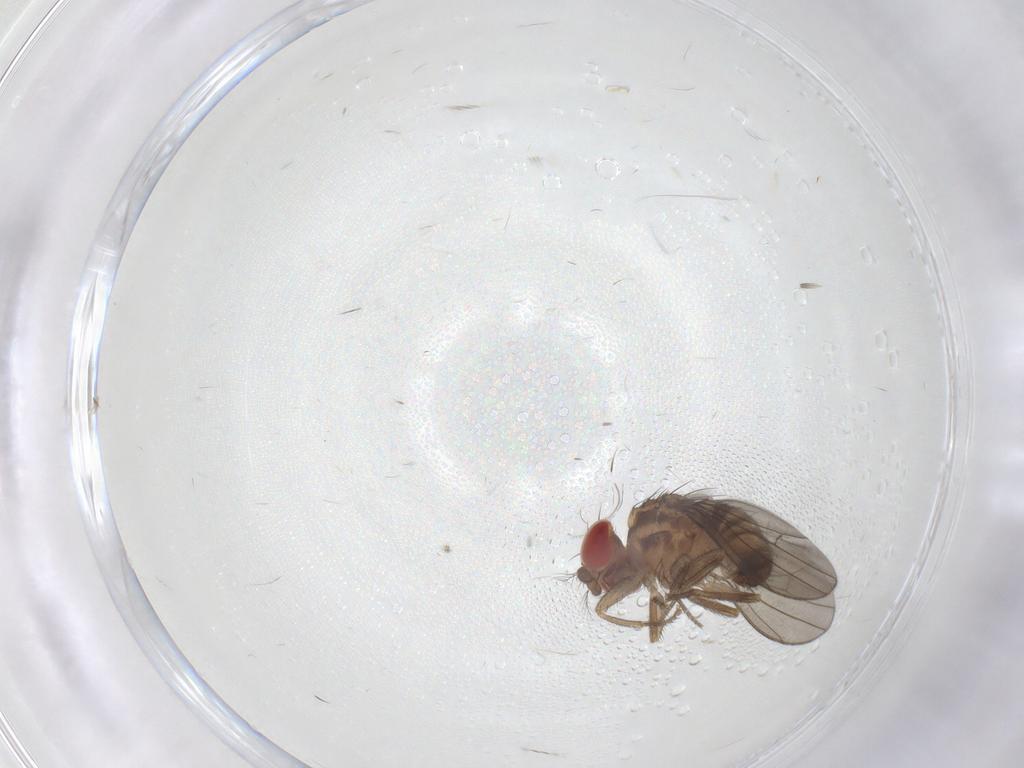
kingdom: Animalia
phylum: Arthropoda
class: Insecta
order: Diptera
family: Drosophilidae
